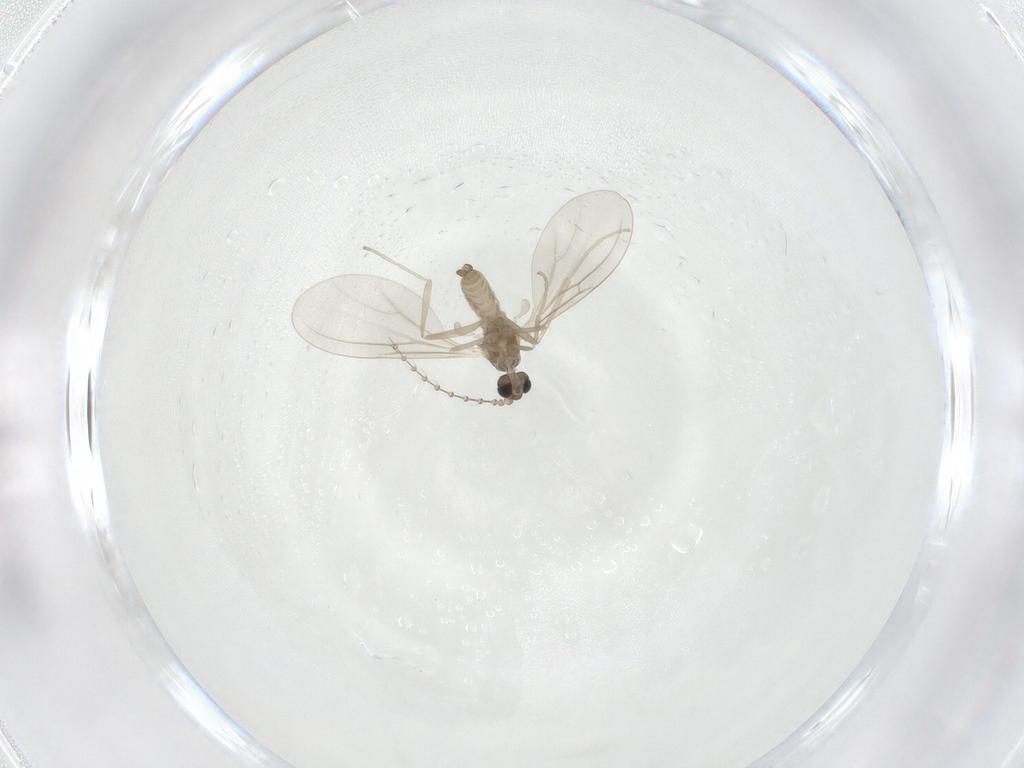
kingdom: Animalia
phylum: Arthropoda
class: Insecta
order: Diptera
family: Cecidomyiidae
